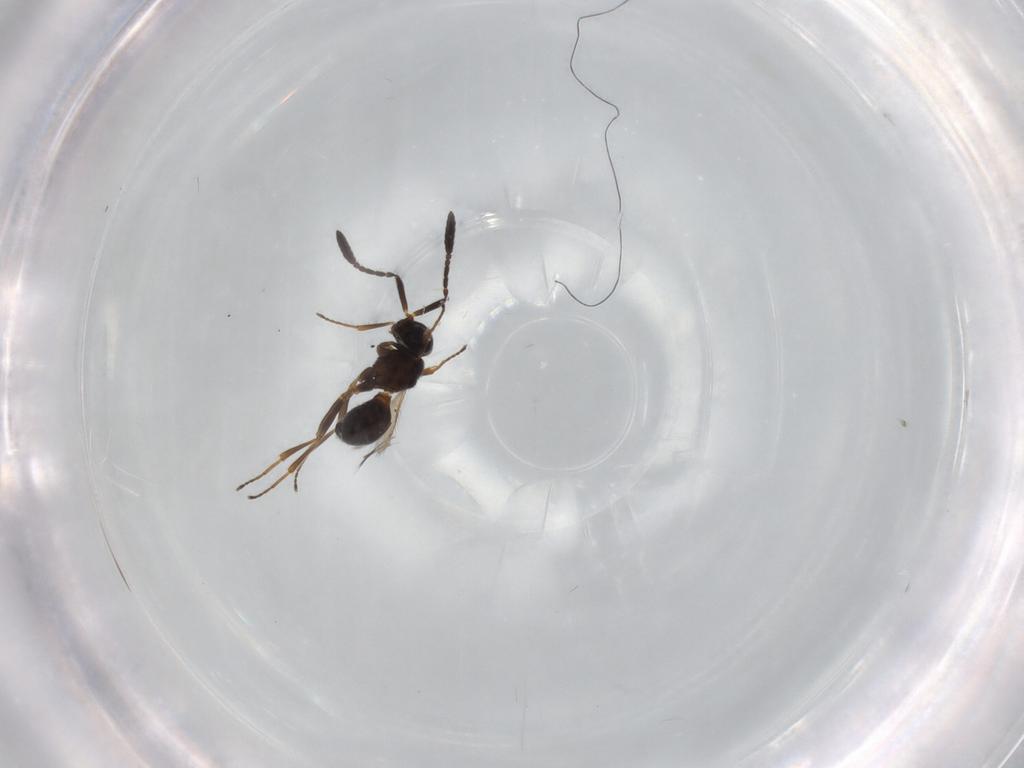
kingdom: Animalia
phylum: Arthropoda
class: Insecta
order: Hymenoptera
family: Scelionidae
